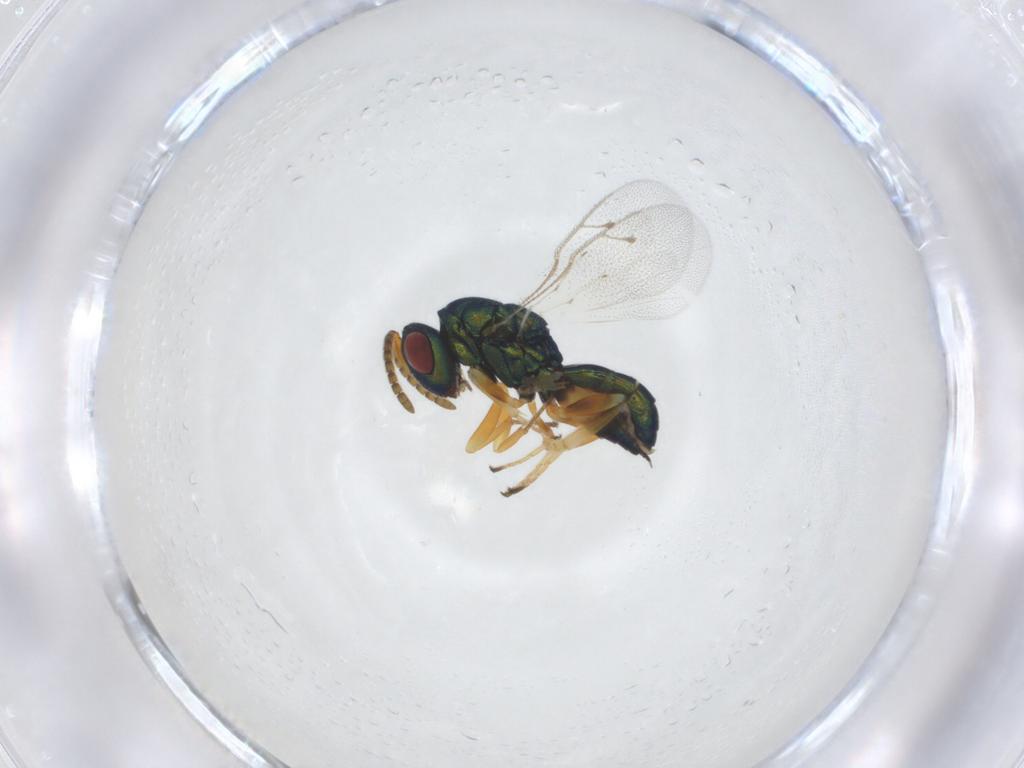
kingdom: Animalia
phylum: Arthropoda
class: Insecta
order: Hymenoptera
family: Pteromalidae
